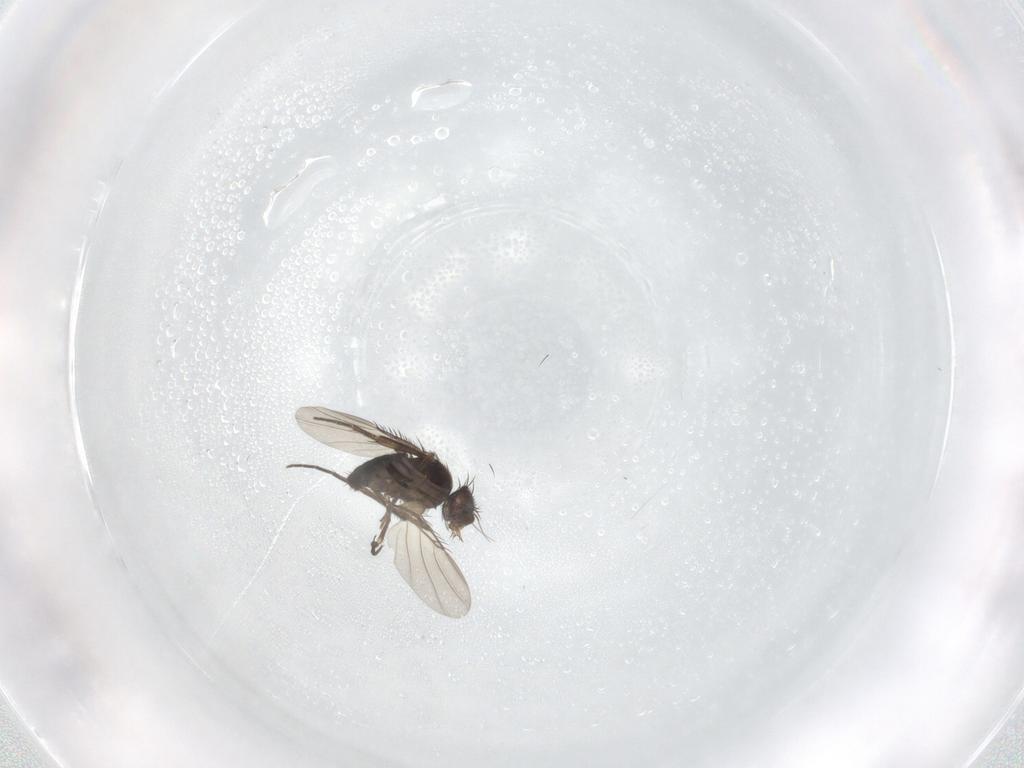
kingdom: Animalia
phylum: Arthropoda
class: Insecta
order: Diptera
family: Phoridae
